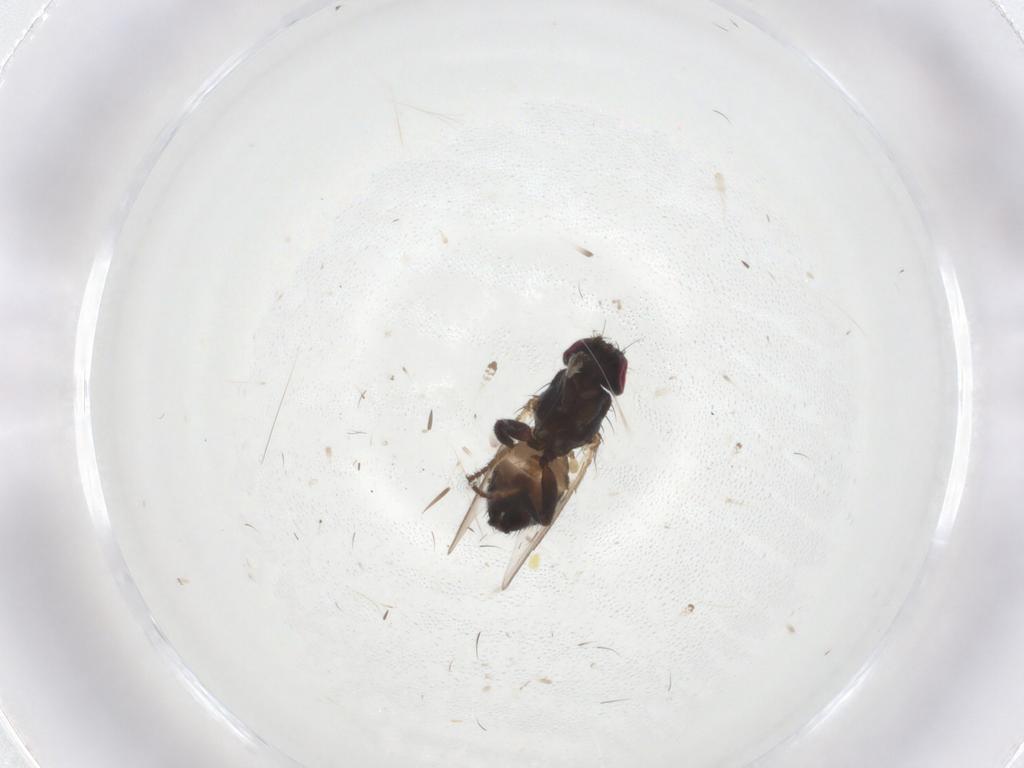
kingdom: Animalia
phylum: Arthropoda
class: Insecta
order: Diptera
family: Milichiidae
